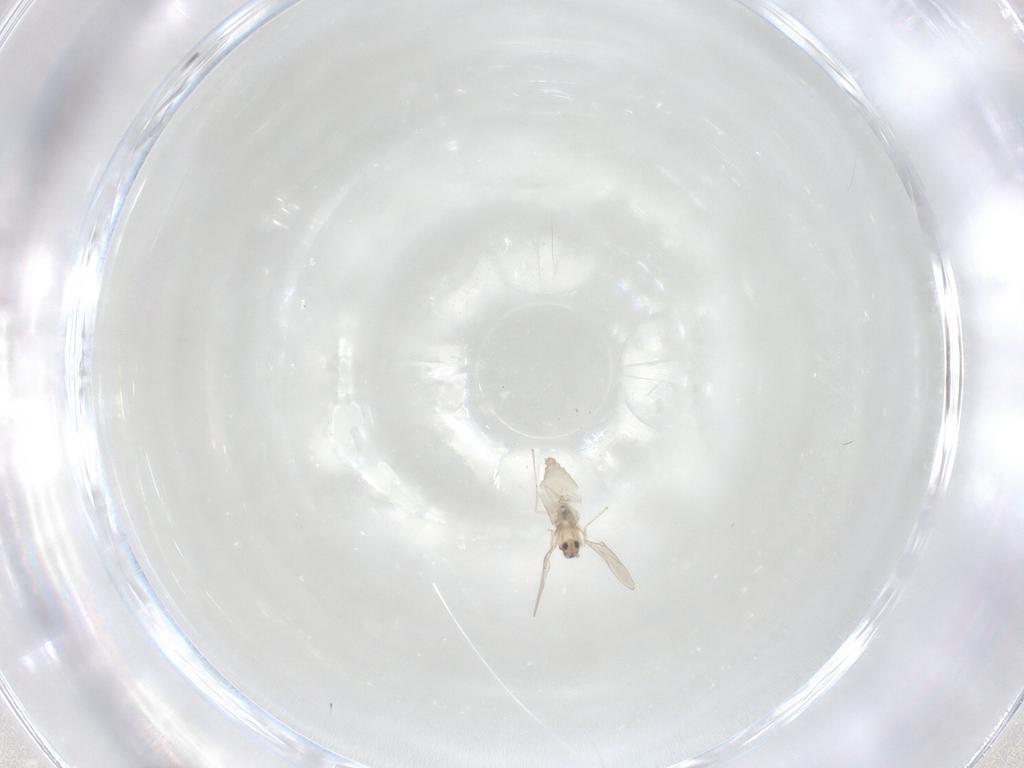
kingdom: Animalia
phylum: Arthropoda
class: Insecta
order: Diptera
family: Cecidomyiidae
